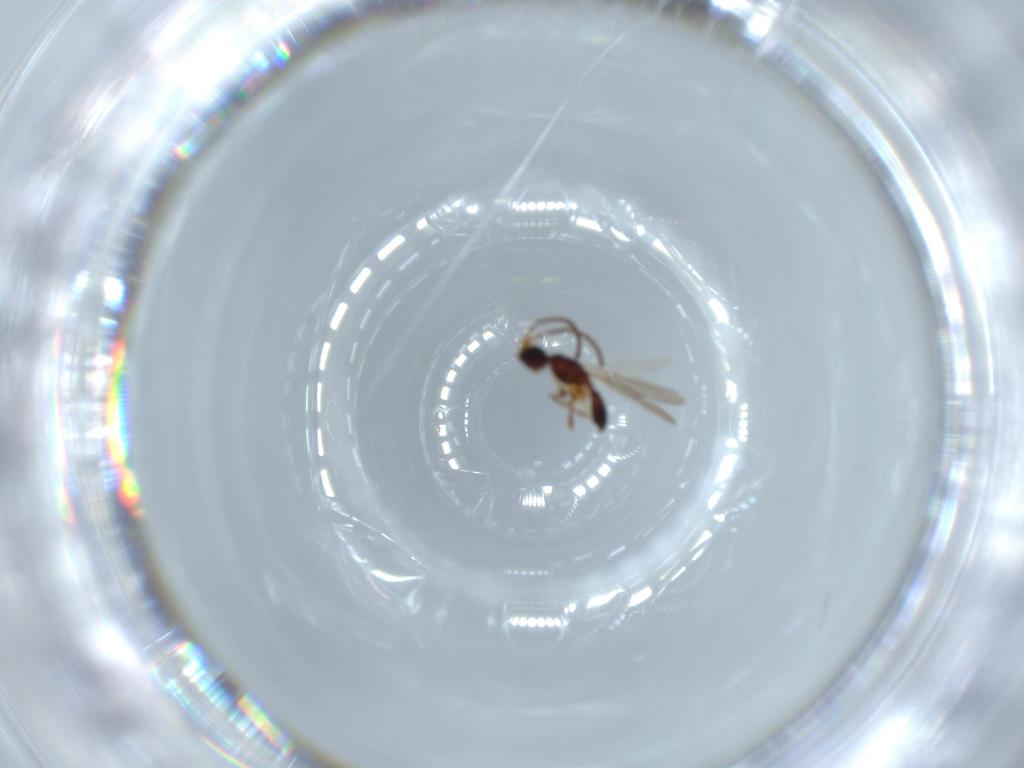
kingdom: Animalia
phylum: Arthropoda
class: Insecta
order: Hymenoptera
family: Diapriidae
